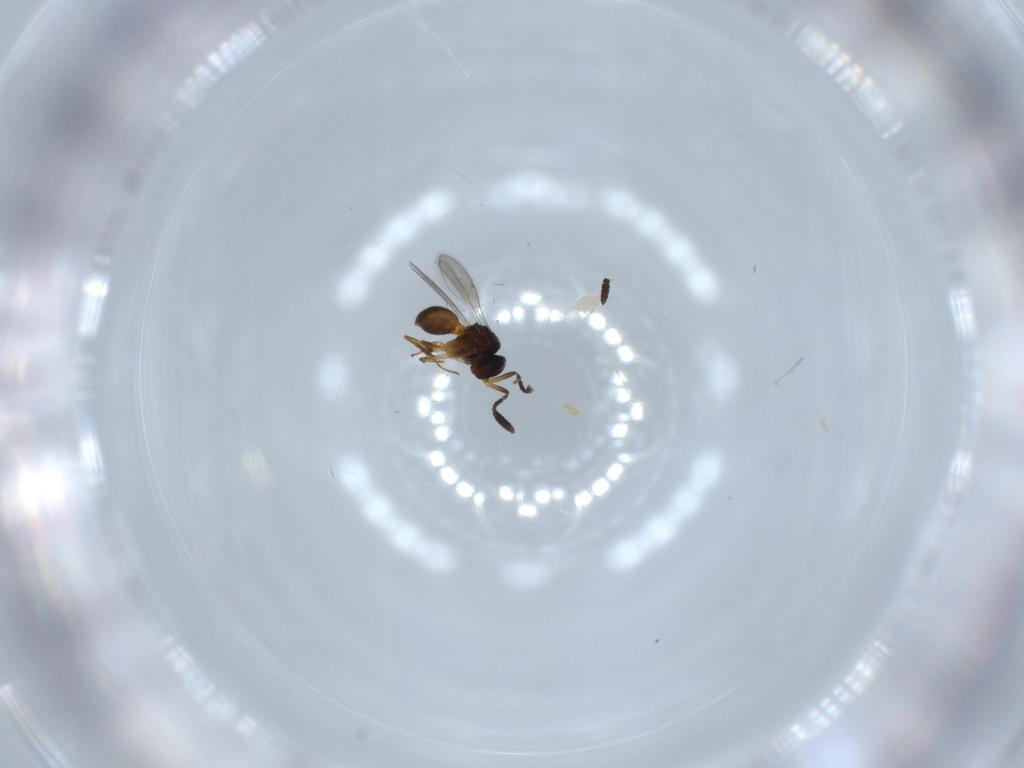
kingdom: Animalia
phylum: Arthropoda
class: Insecta
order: Hymenoptera
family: Scelionidae
